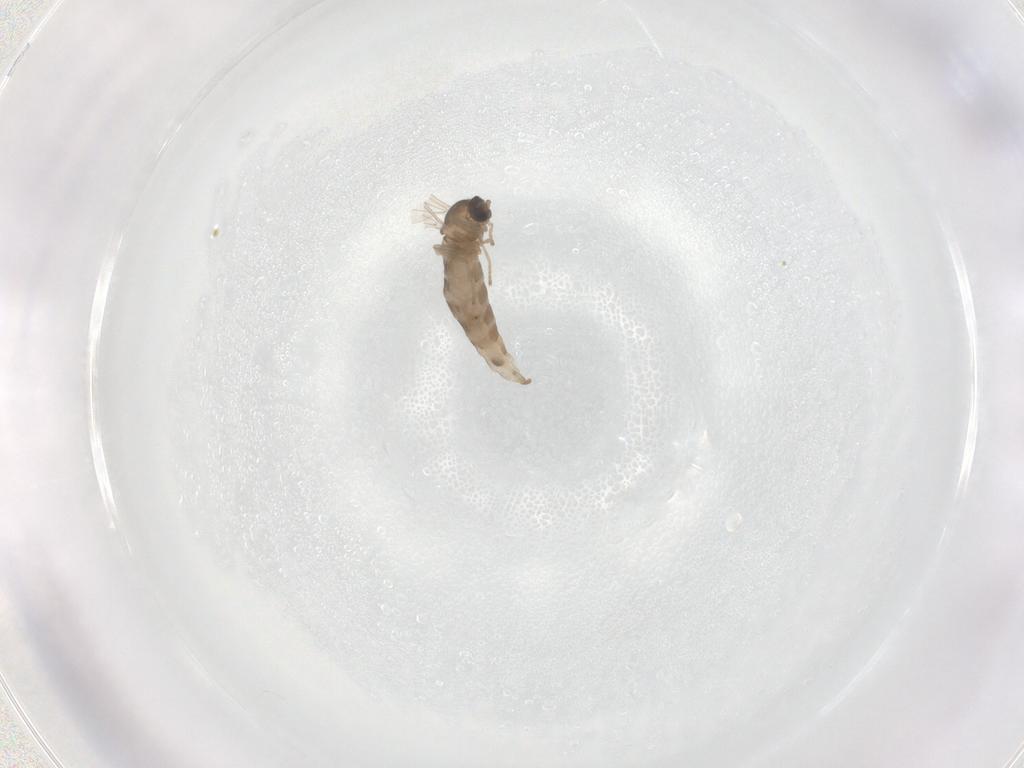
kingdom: Animalia
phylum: Arthropoda
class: Insecta
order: Diptera
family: Cecidomyiidae
